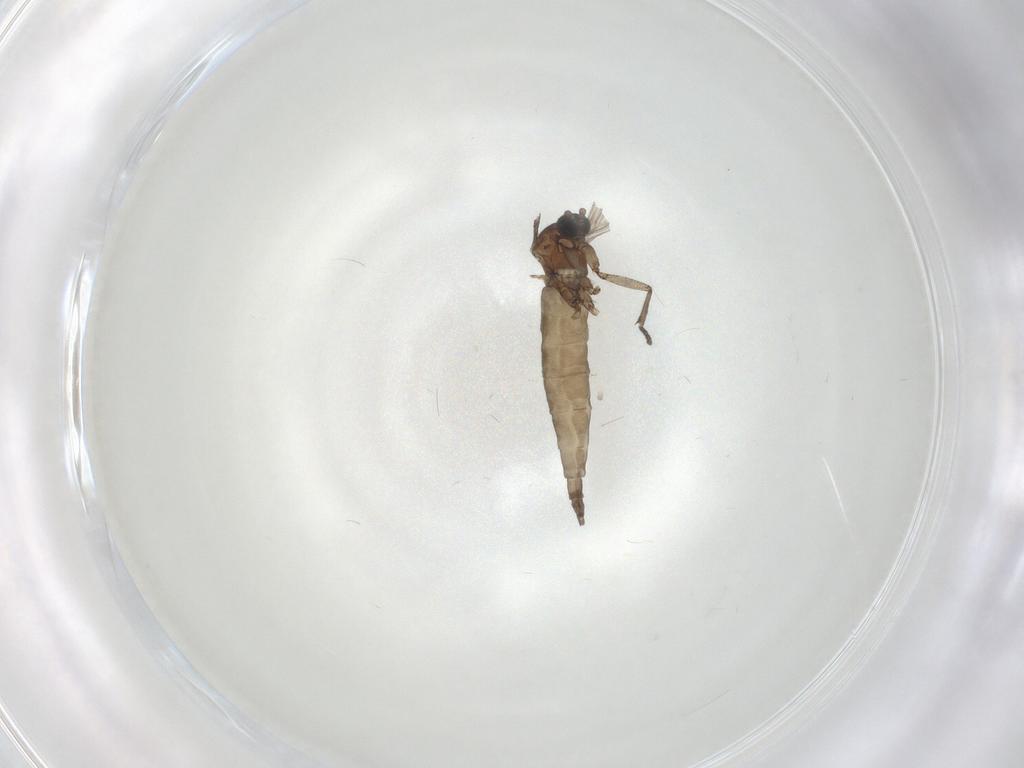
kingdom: Animalia
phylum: Arthropoda
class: Insecta
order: Diptera
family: Sciaridae
